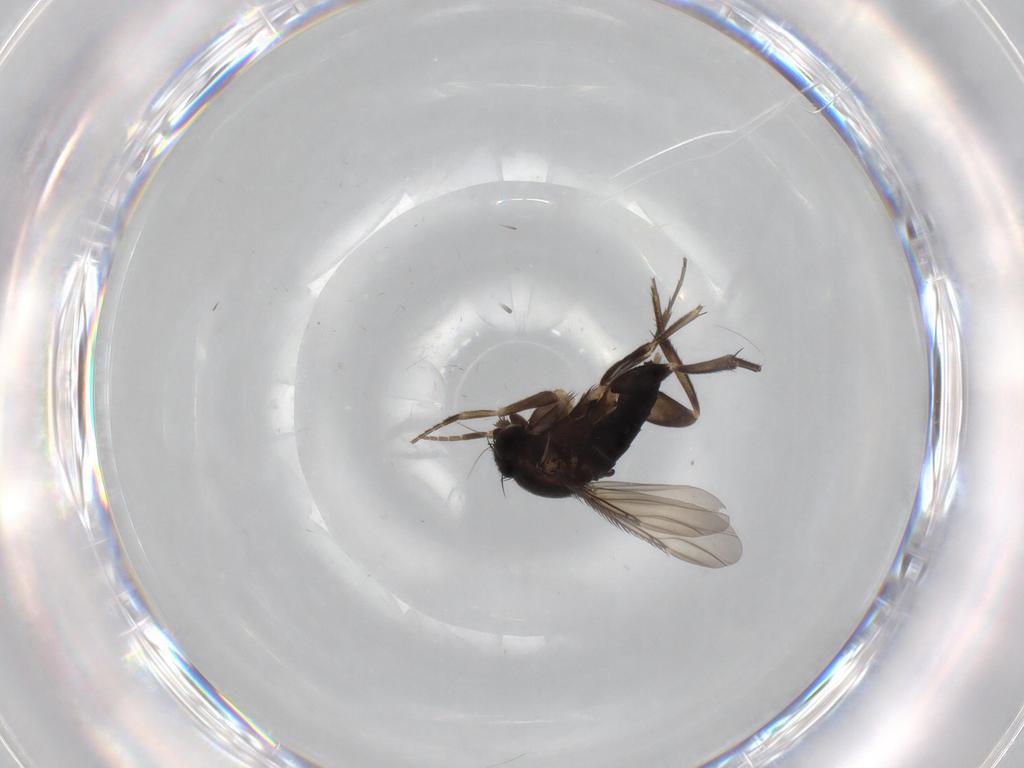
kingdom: Animalia
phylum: Arthropoda
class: Insecta
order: Diptera
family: Phoridae
